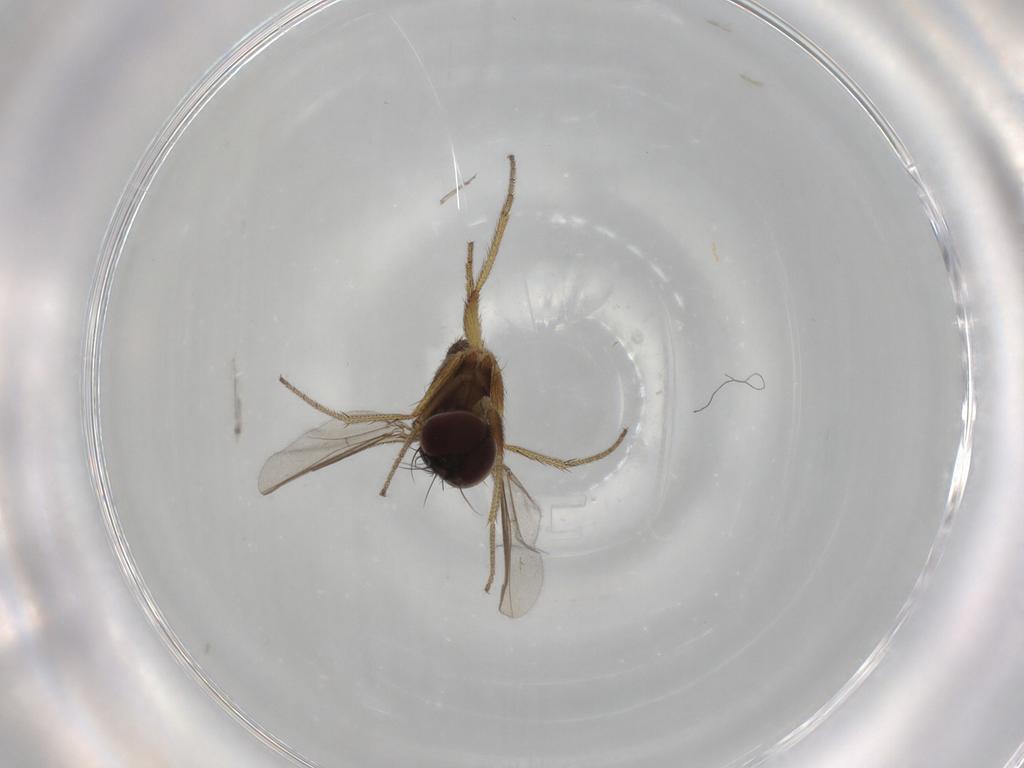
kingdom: Animalia
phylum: Arthropoda
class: Insecta
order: Diptera
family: Dolichopodidae
